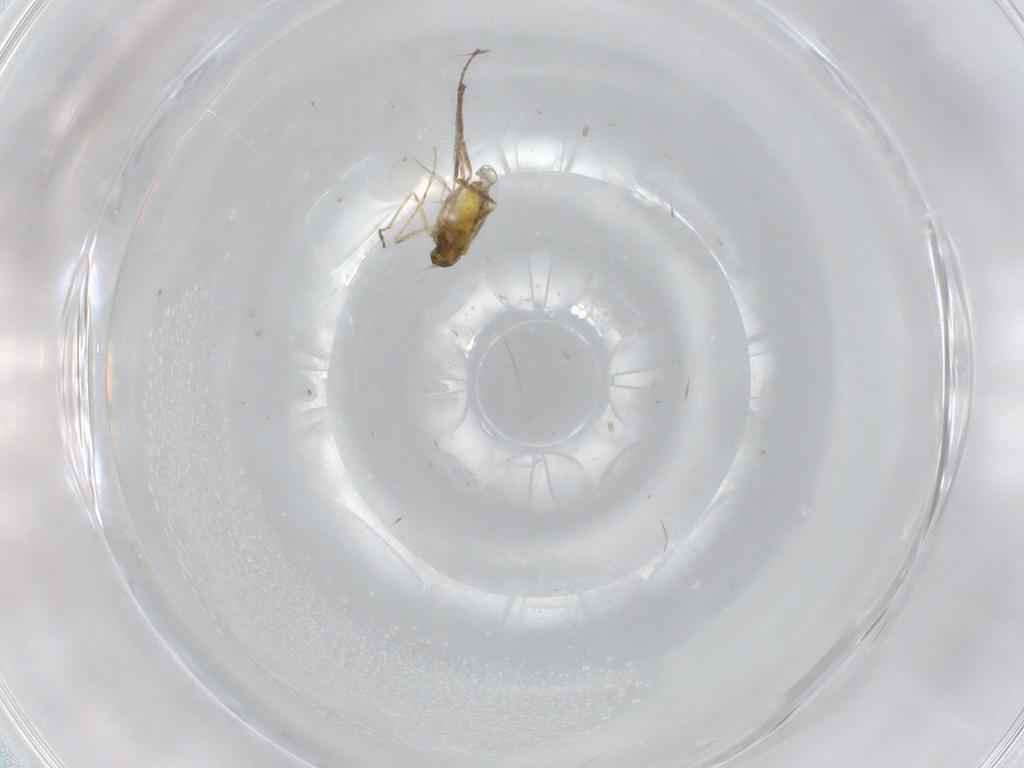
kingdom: Animalia
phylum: Arthropoda
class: Insecta
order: Diptera
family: Cecidomyiidae
